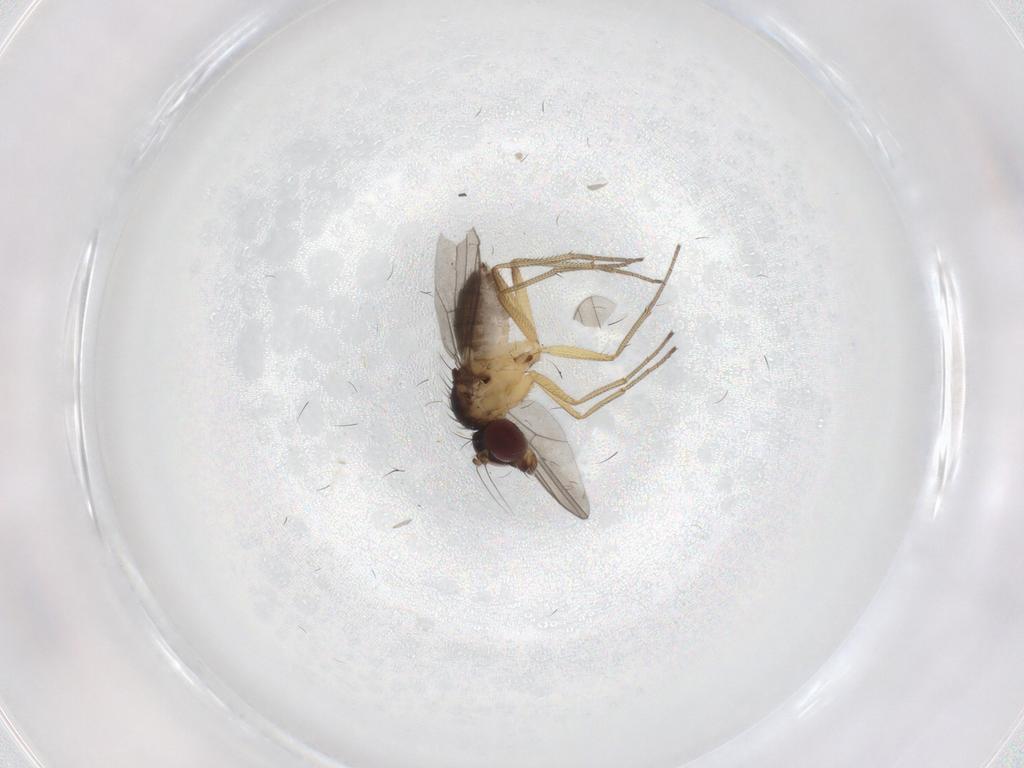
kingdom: Animalia
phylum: Arthropoda
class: Insecta
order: Diptera
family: Dolichopodidae
